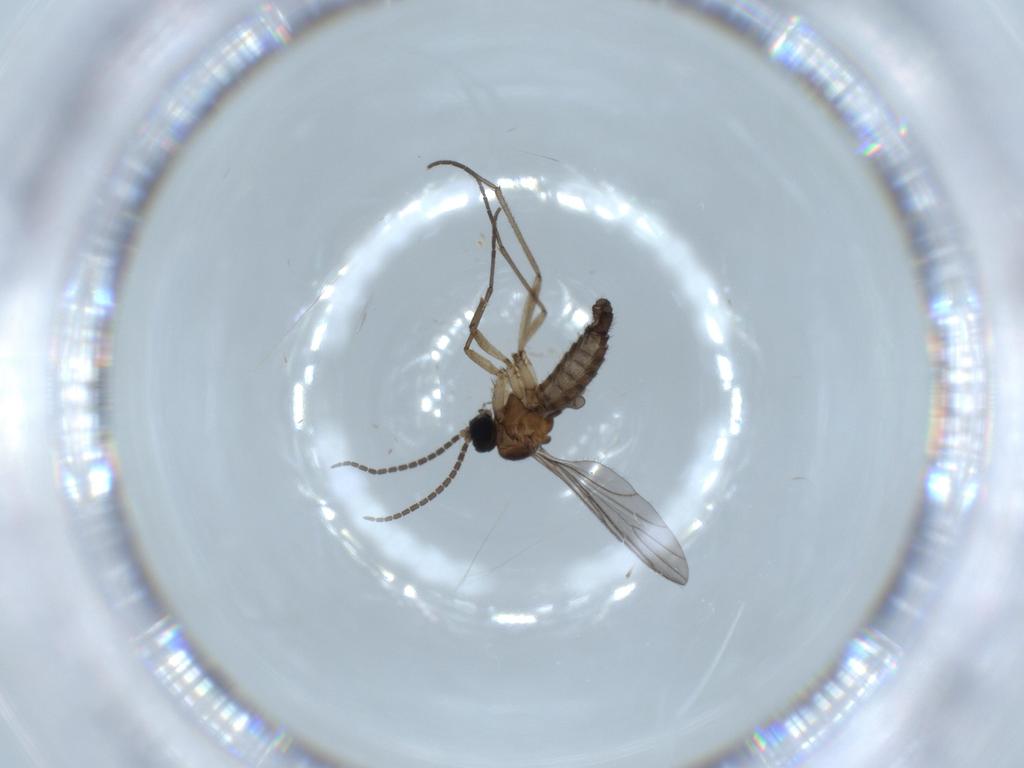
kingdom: Animalia
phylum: Arthropoda
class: Insecta
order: Diptera
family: Sciaridae
